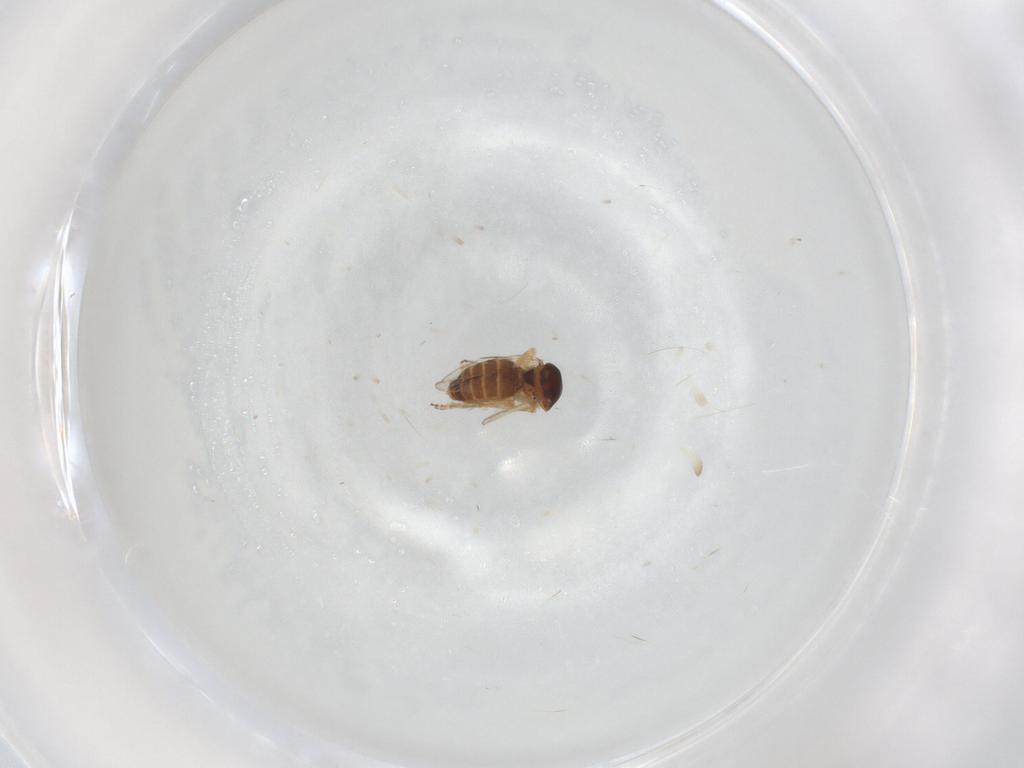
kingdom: Animalia
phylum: Arthropoda
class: Insecta
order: Diptera
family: Ceratopogonidae
